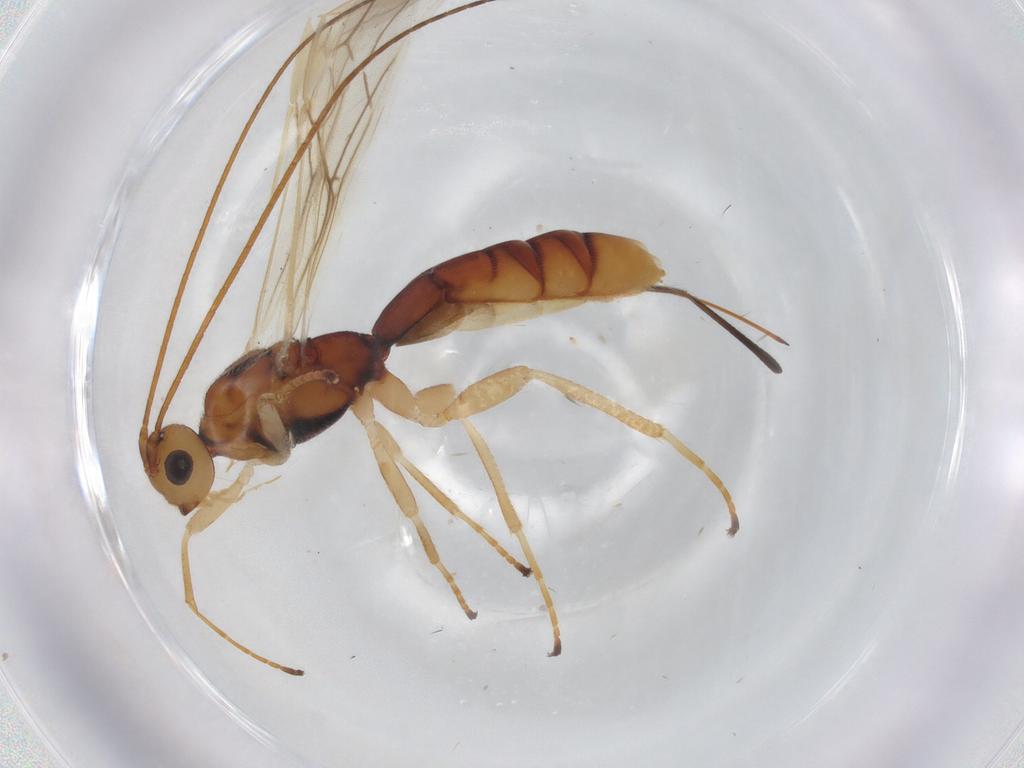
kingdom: Animalia
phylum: Arthropoda
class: Insecta
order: Hymenoptera
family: Braconidae
